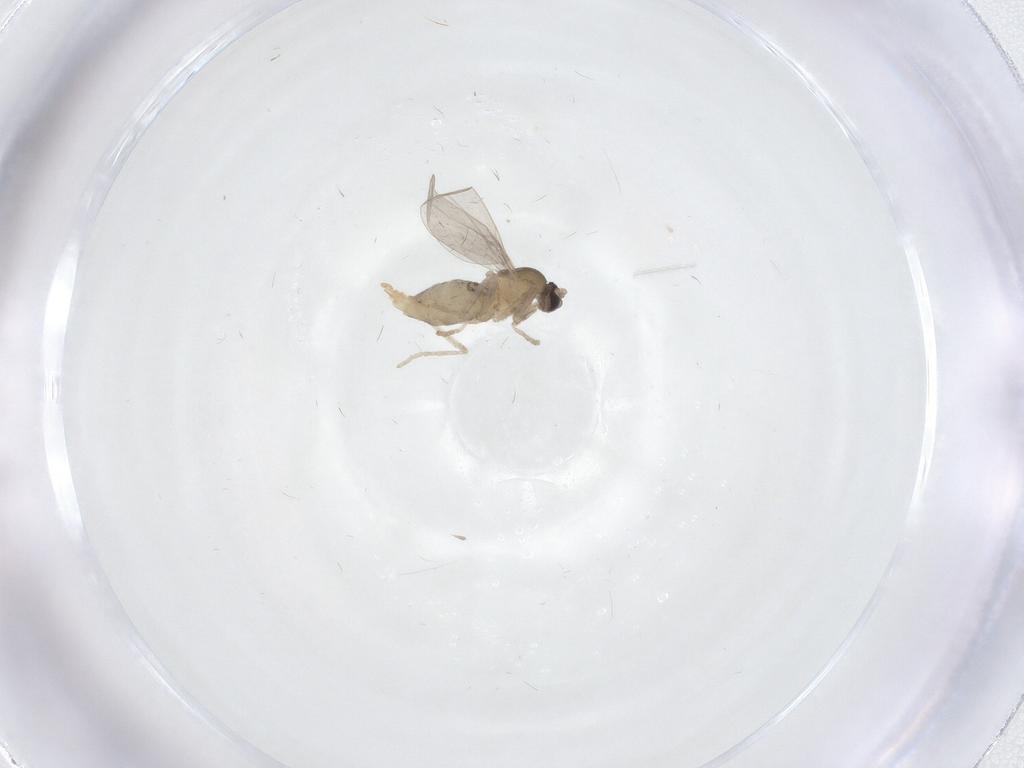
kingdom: Animalia
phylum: Arthropoda
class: Insecta
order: Diptera
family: Cecidomyiidae
